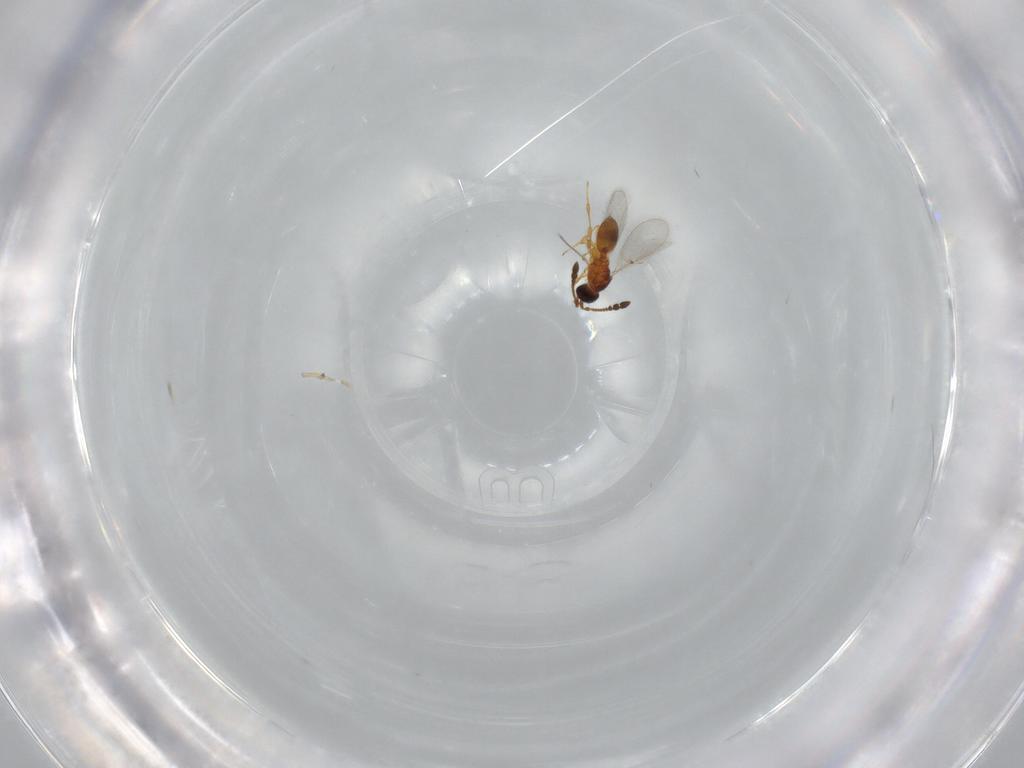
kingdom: Animalia
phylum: Arthropoda
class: Insecta
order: Hymenoptera
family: Diapriidae
